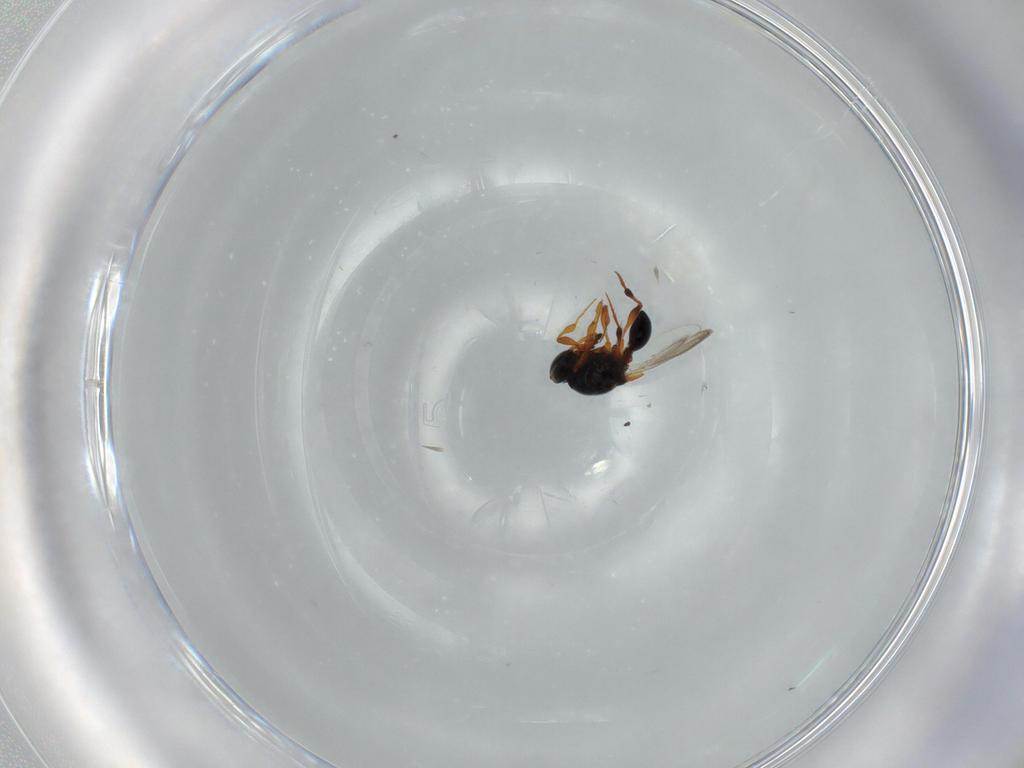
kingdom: Animalia
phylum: Arthropoda
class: Insecta
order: Hymenoptera
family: Platygastridae
